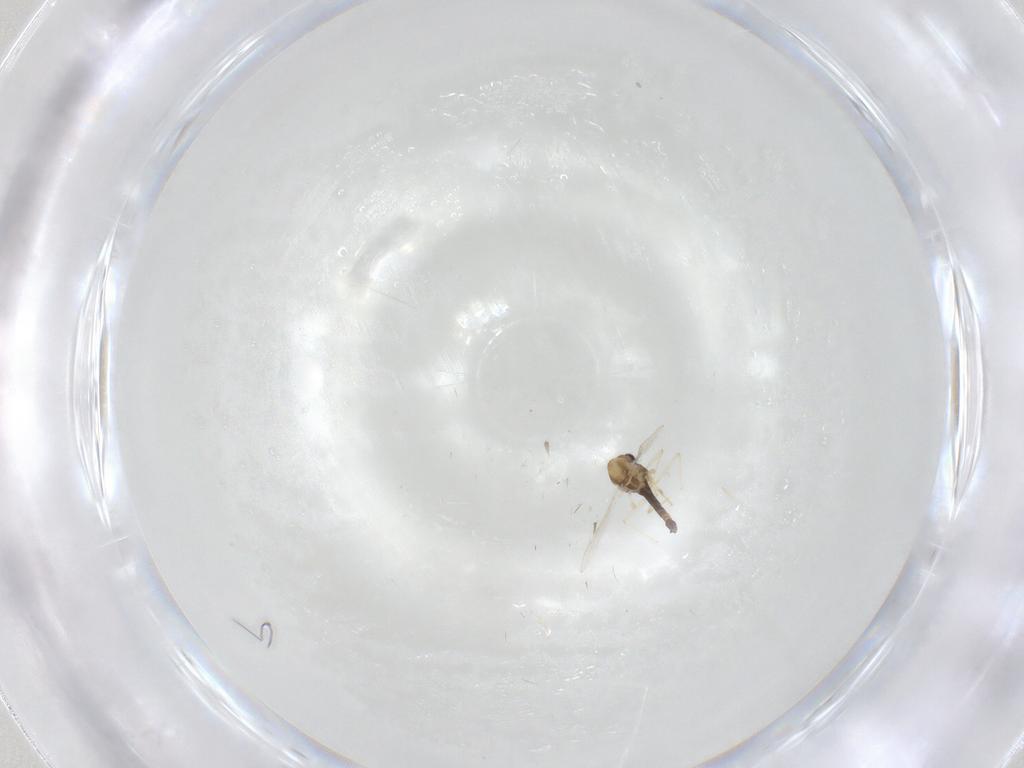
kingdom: Animalia
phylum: Arthropoda
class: Insecta
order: Diptera
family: Chironomidae
